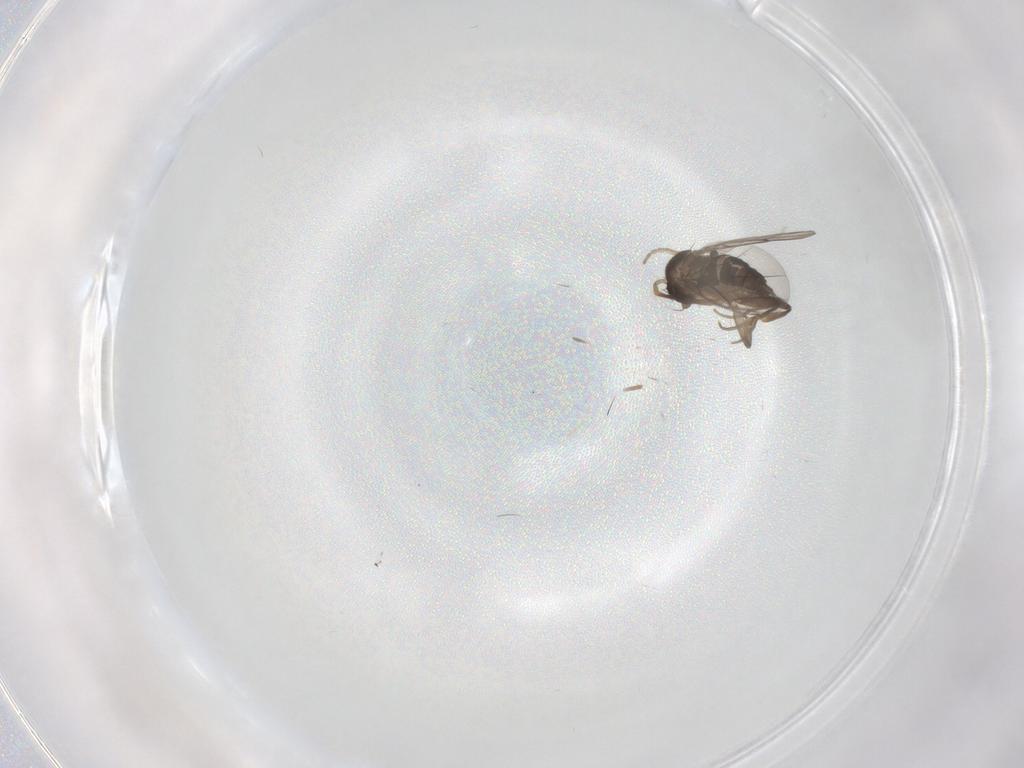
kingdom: Animalia
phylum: Arthropoda
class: Insecta
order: Diptera
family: Phoridae
